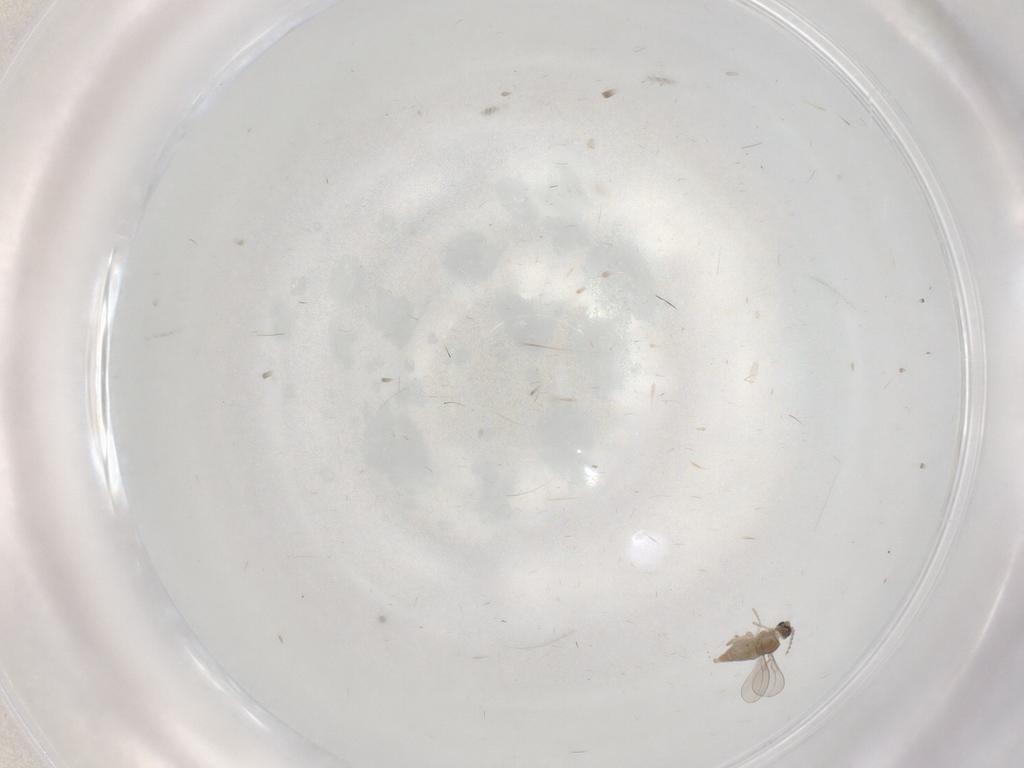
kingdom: Animalia
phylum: Arthropoda
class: Insecta
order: Diptera
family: Cecidomyiidae
